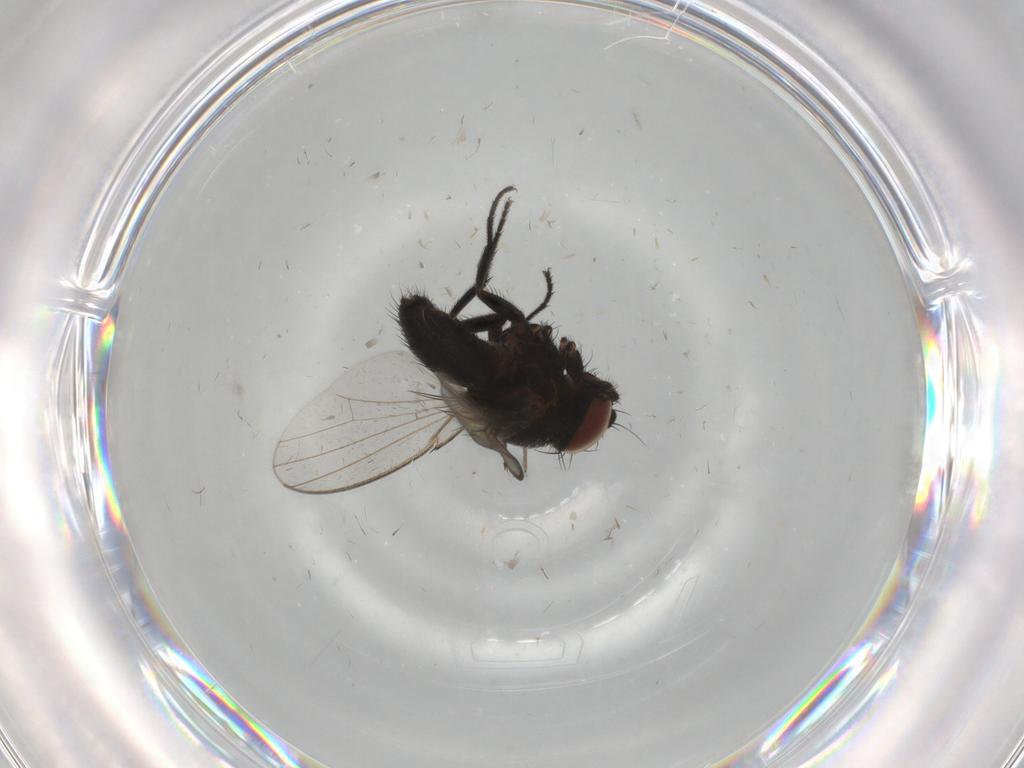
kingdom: Animalia
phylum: Arthropoda
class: Insecta
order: Diptera
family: Milichiidae
